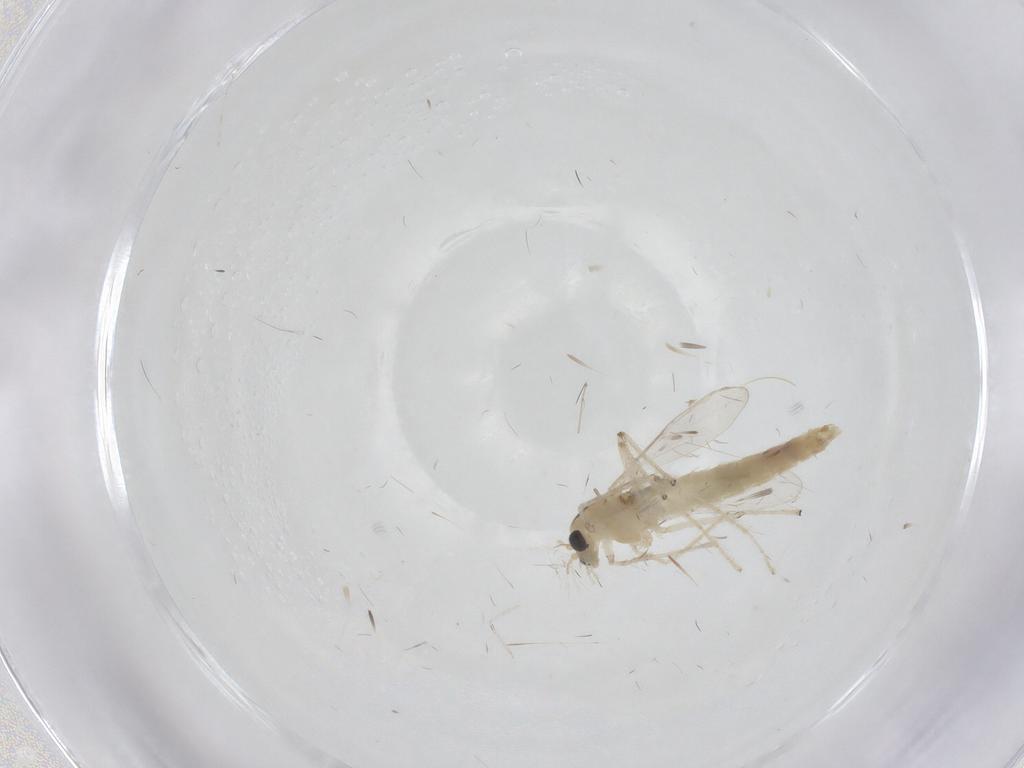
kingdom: Animalia
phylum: Arthropoda
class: Insecta
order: Diptera
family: Chironomidae
